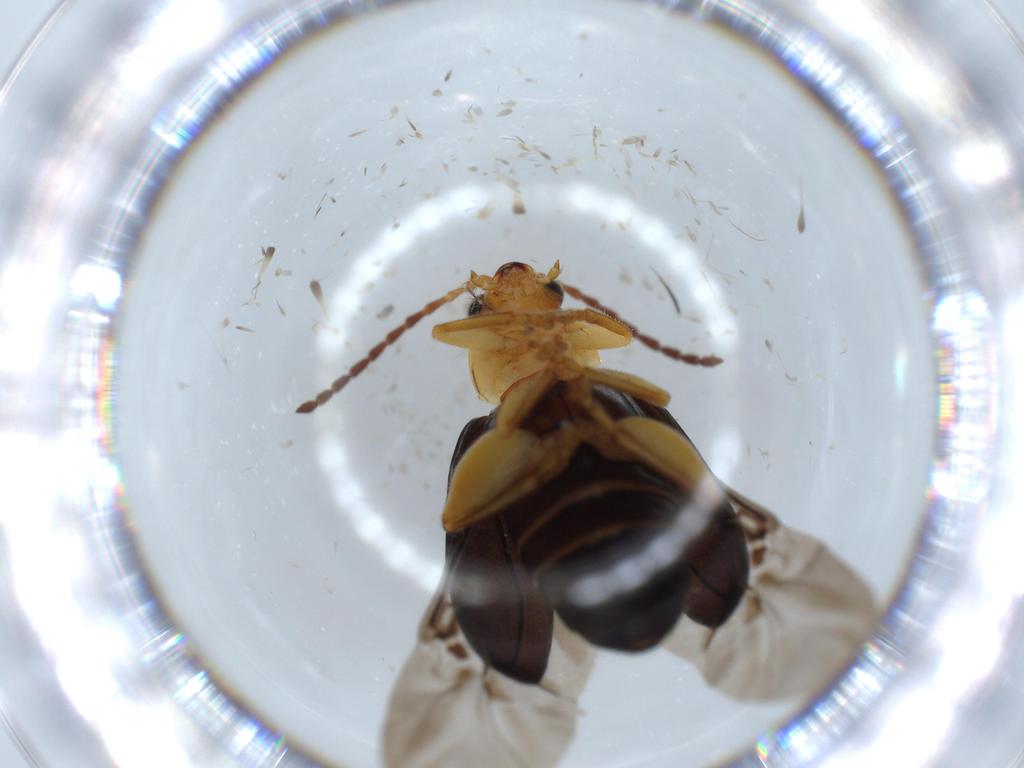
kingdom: Animalia
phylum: Arthropoda
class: Insecta
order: Coleoptera
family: Chrysomelidae
